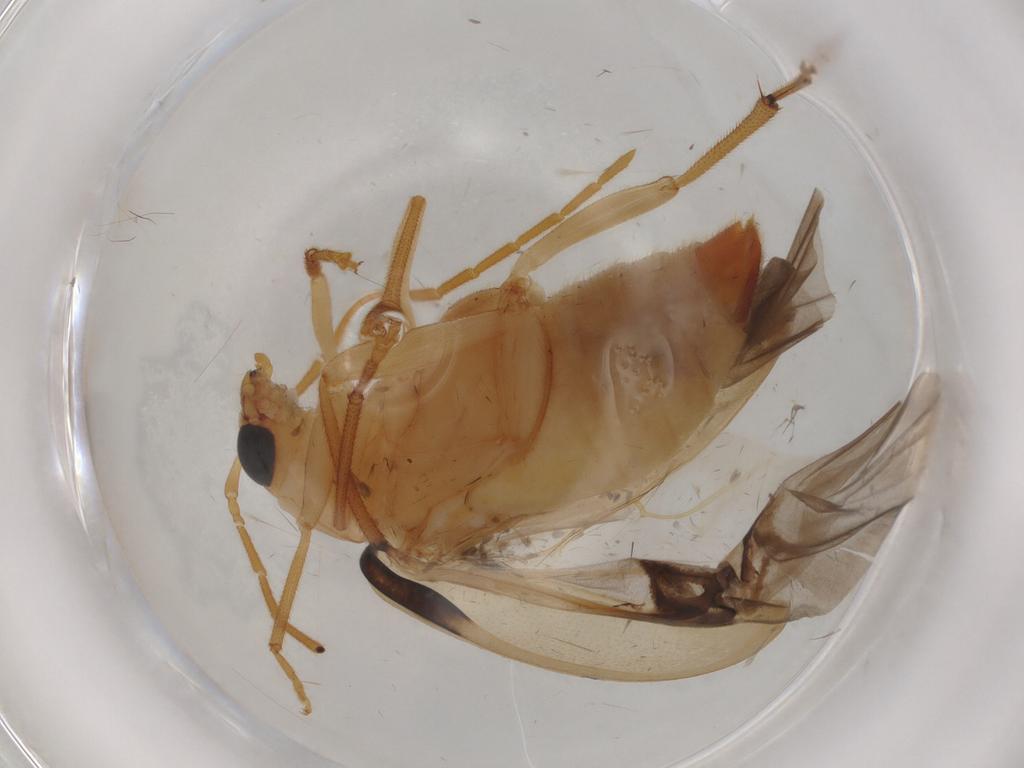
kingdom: Animalia
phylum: Arthropoda
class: Insecta
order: Coleoptera
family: Chrysomelidae
